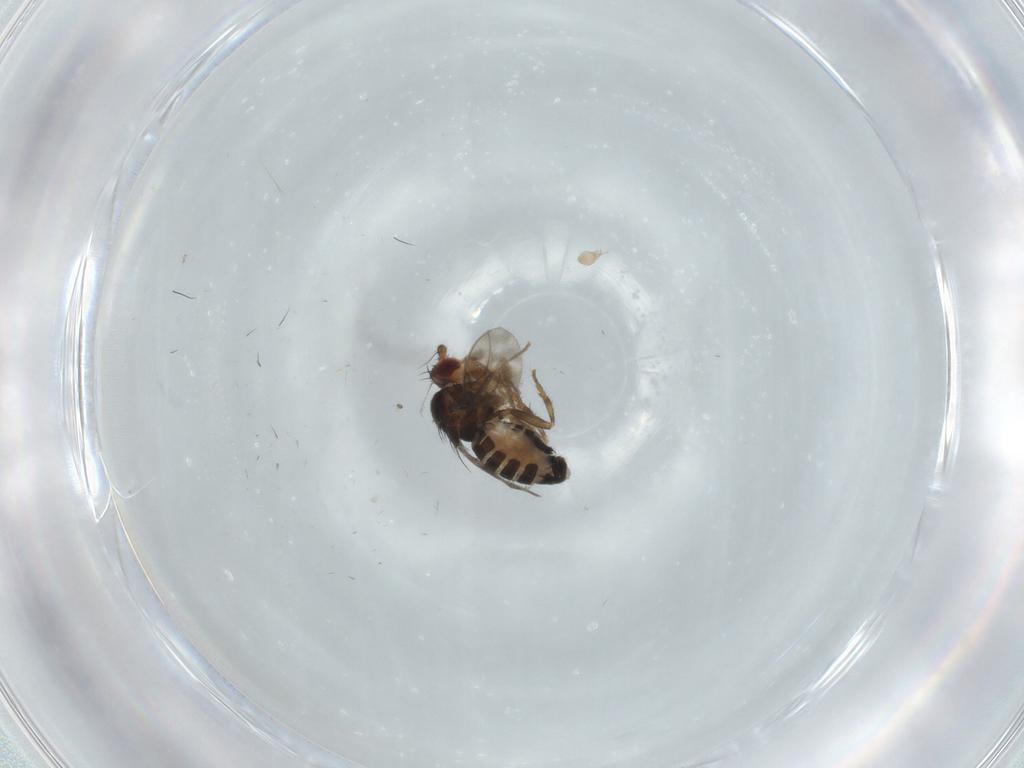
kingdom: Animalia
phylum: Arthropoda
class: Insecta
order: Diptera
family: Sphaeroceridae
